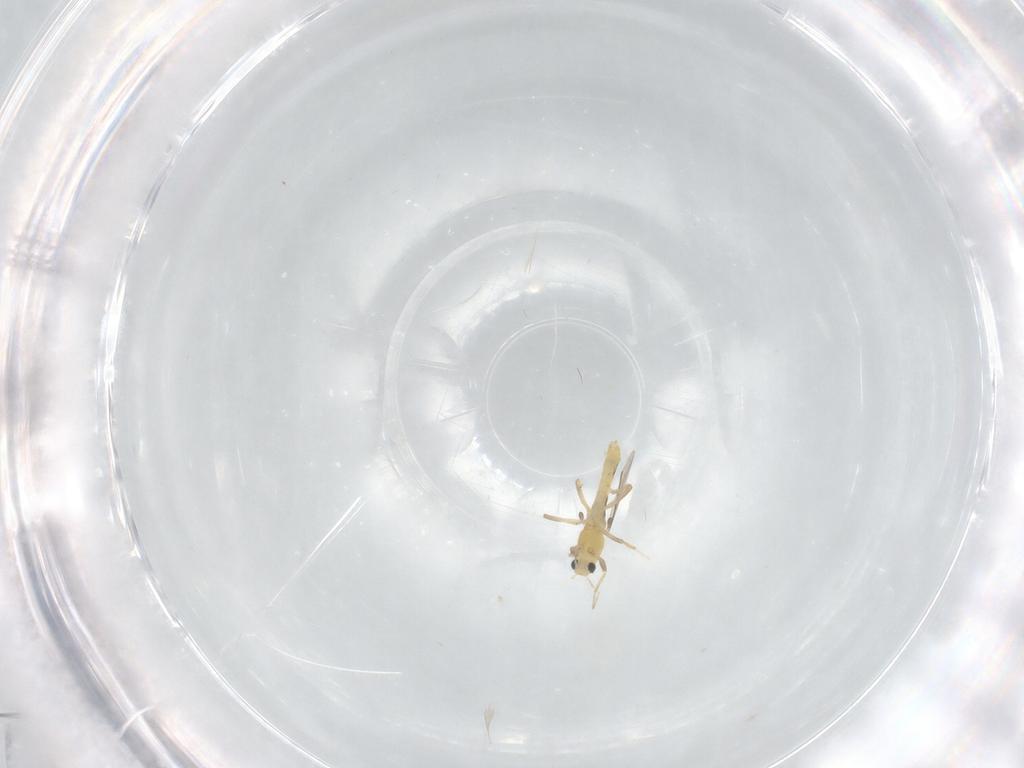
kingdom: Animalia
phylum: Arthropoda
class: Insecta
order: Diptera
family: Chironomidae
